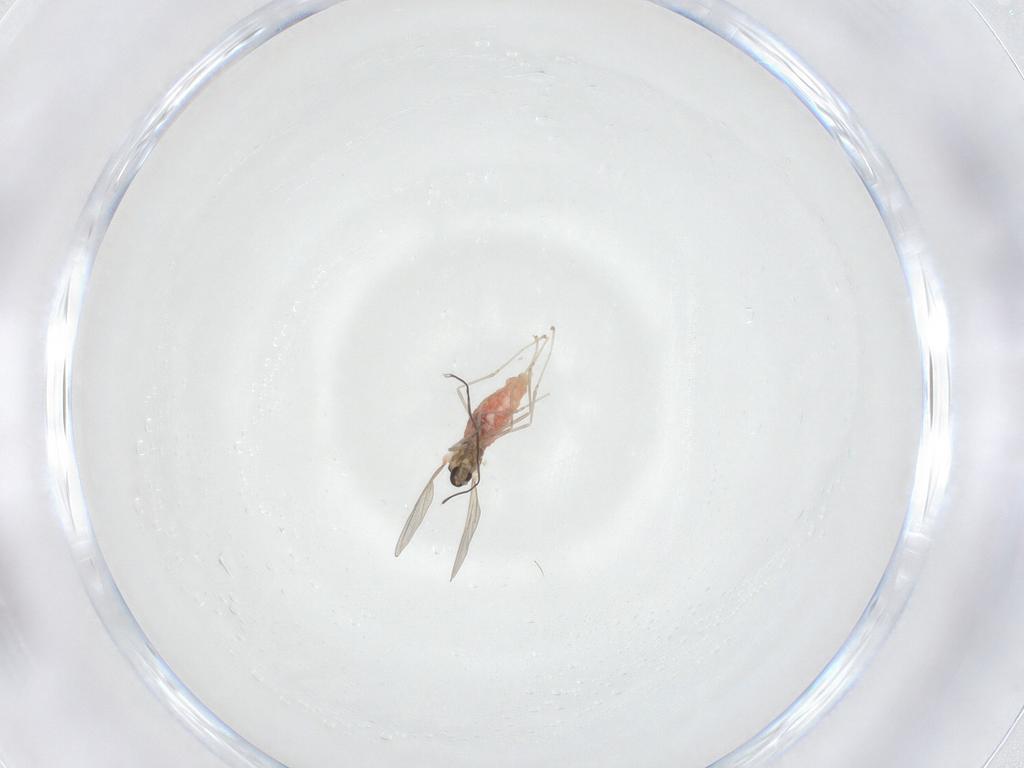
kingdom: Animalia
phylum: Arthropoda
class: Insecta
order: Diptera
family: Cecidomyiidae
